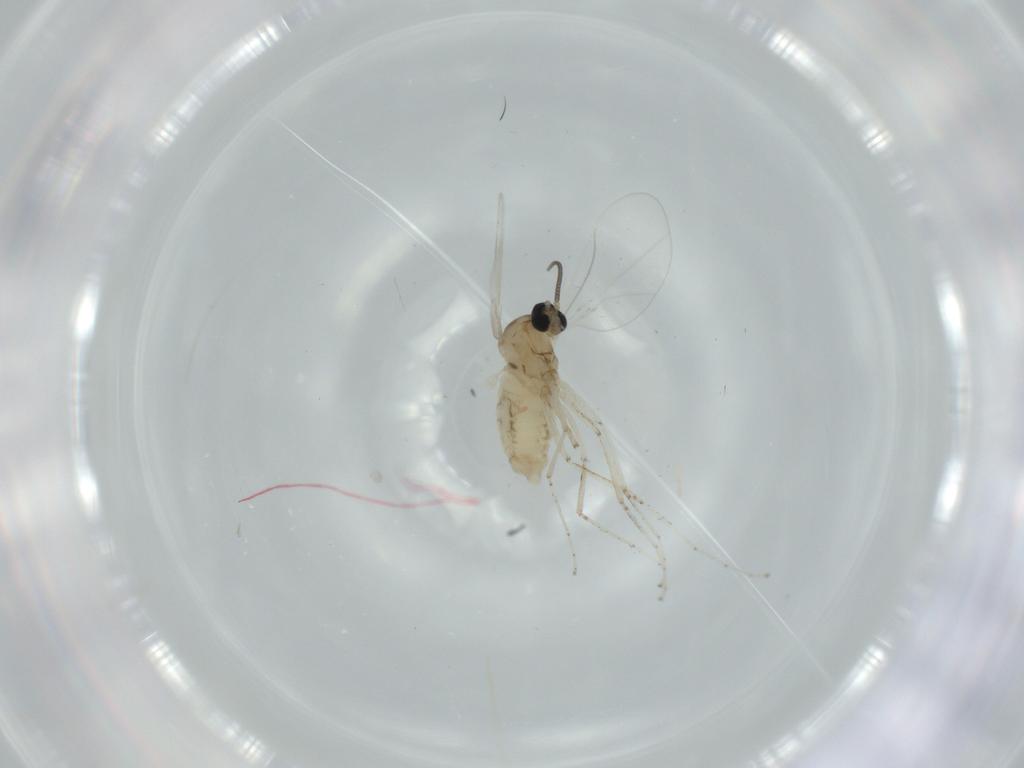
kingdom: Animalia
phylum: Arthropoda
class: Insecta
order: Diptera
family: Cecidomyiidae
